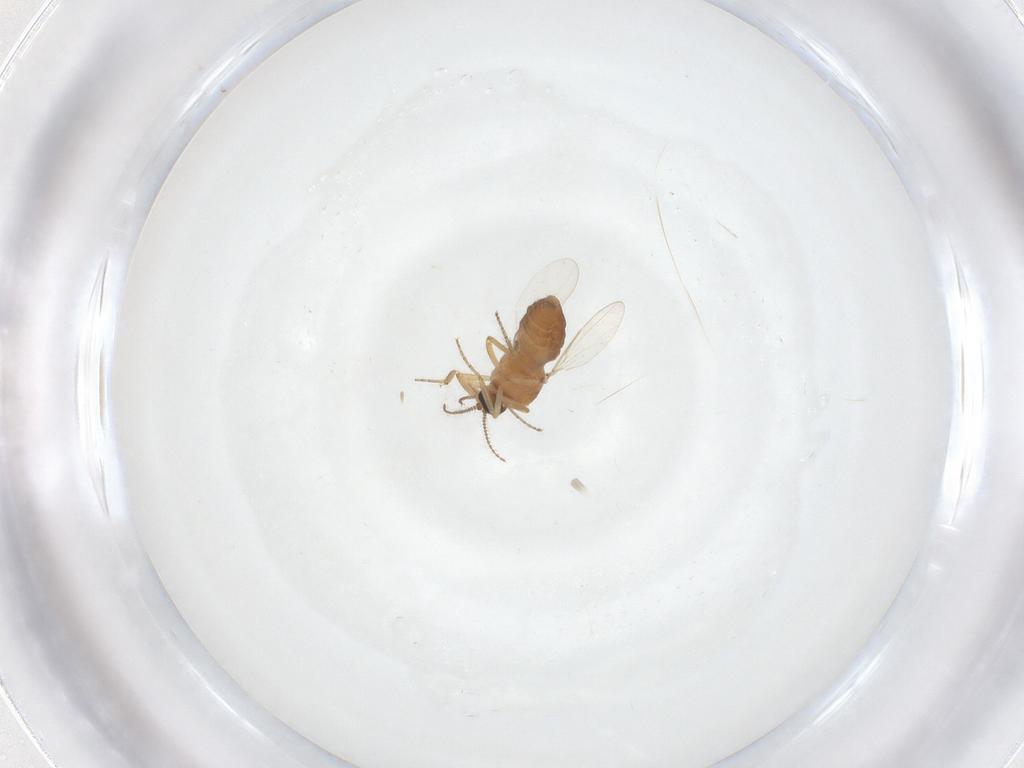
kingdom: Animalia
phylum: Arthropoda
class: Insecta
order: Diptera
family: Ceratopogonidae
